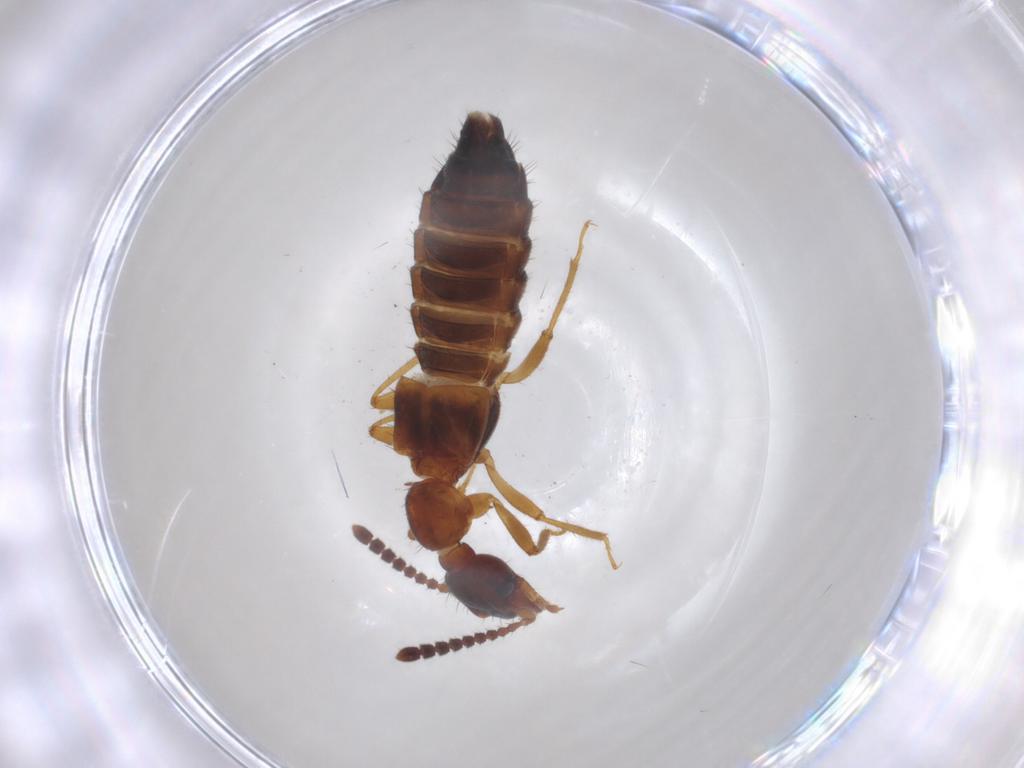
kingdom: Animalia
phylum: Arthropoda
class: Insecta
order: Coleoptera
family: Staphylinidae
